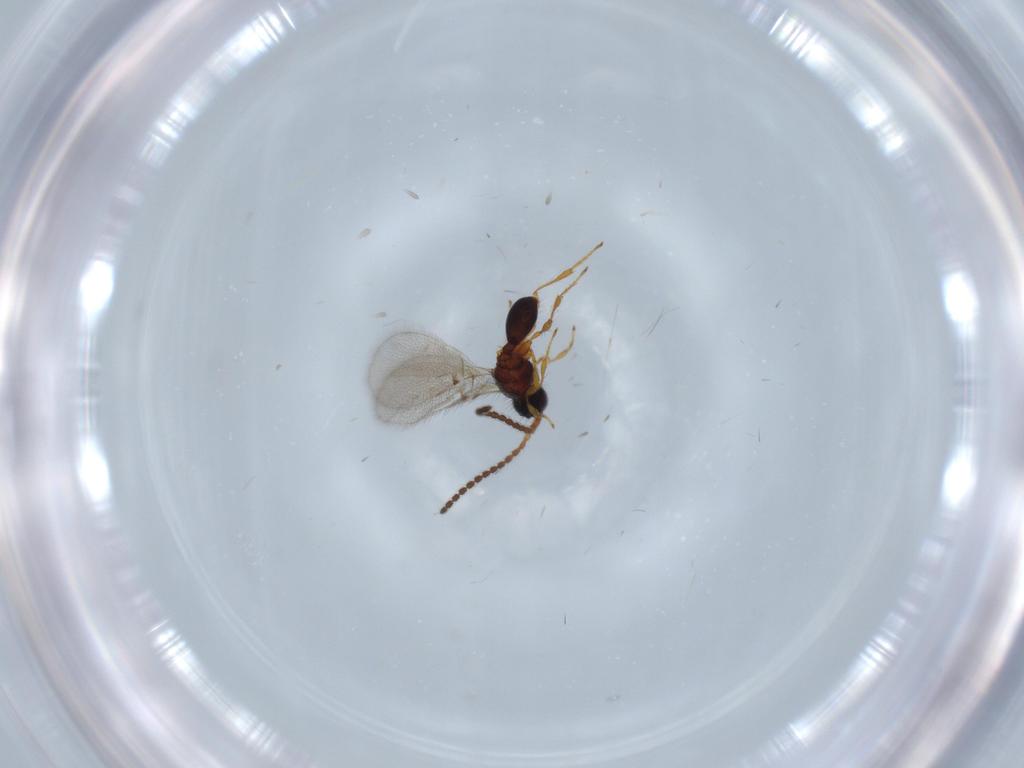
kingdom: Animalia
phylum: Arthropoda
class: Insecta
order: Hymenoptera
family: Diapriidae
